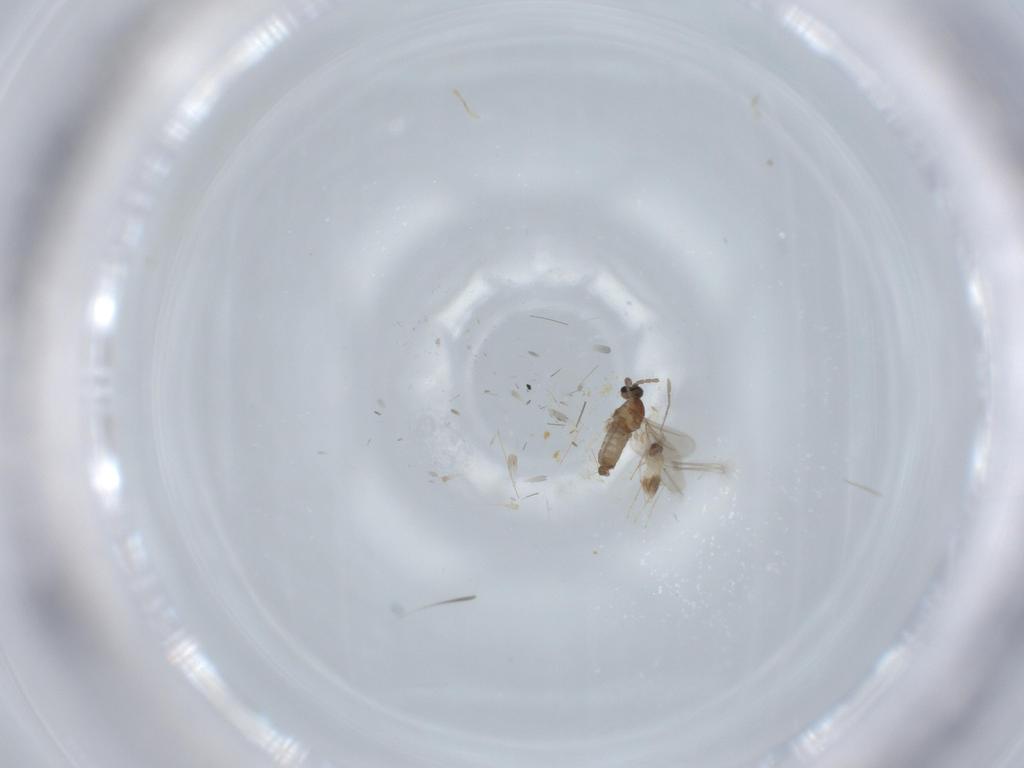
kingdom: Animalia
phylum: Arthropoda
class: Insecta
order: Diptera
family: Cecidomyiidae
